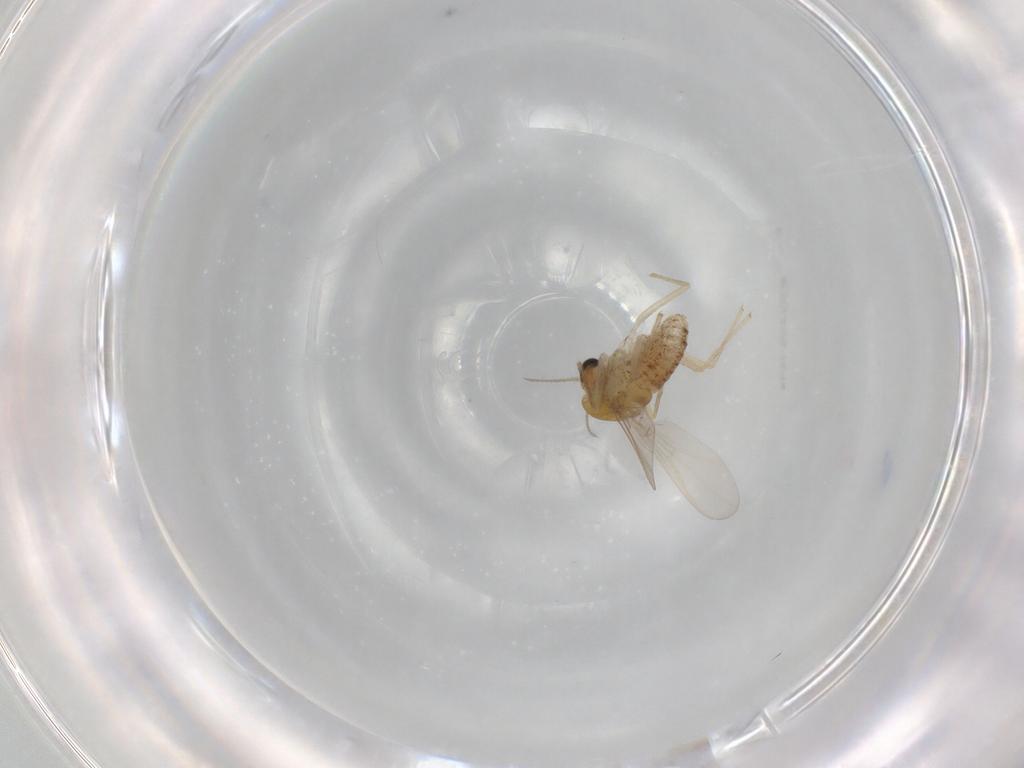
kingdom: Animalia
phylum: Arthropoda
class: Insecta
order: Diptera
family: Chironomidae
